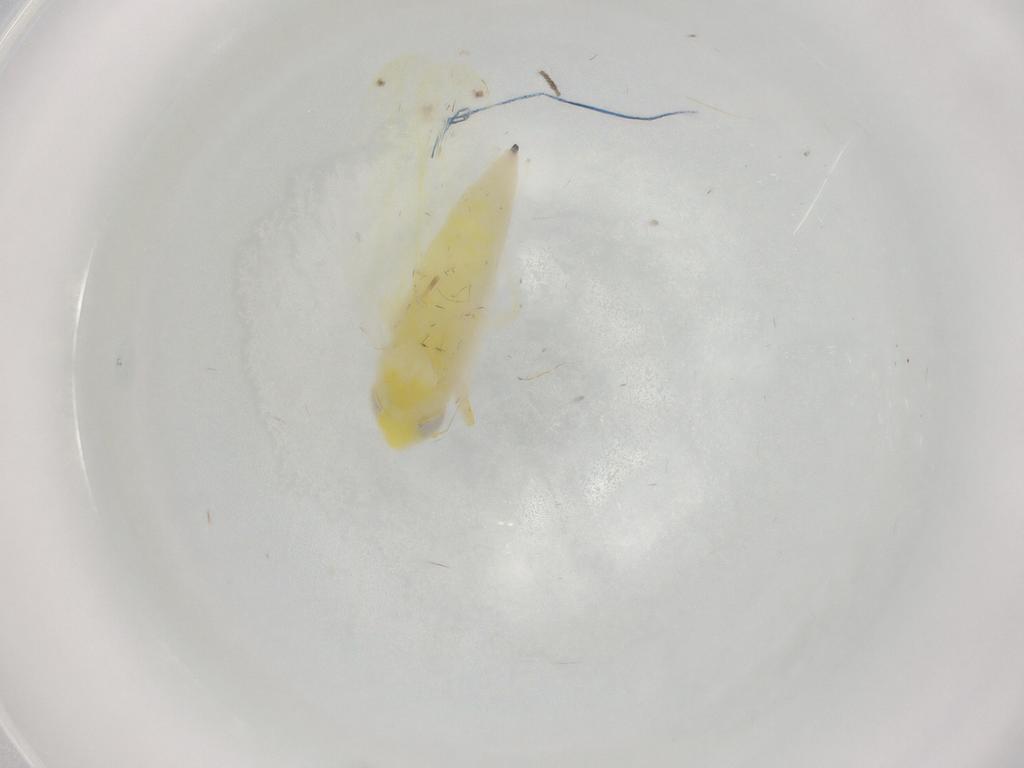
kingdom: Animalia
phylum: Arthropoda
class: Insecta
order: Hemiptera
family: Cicadellidae
